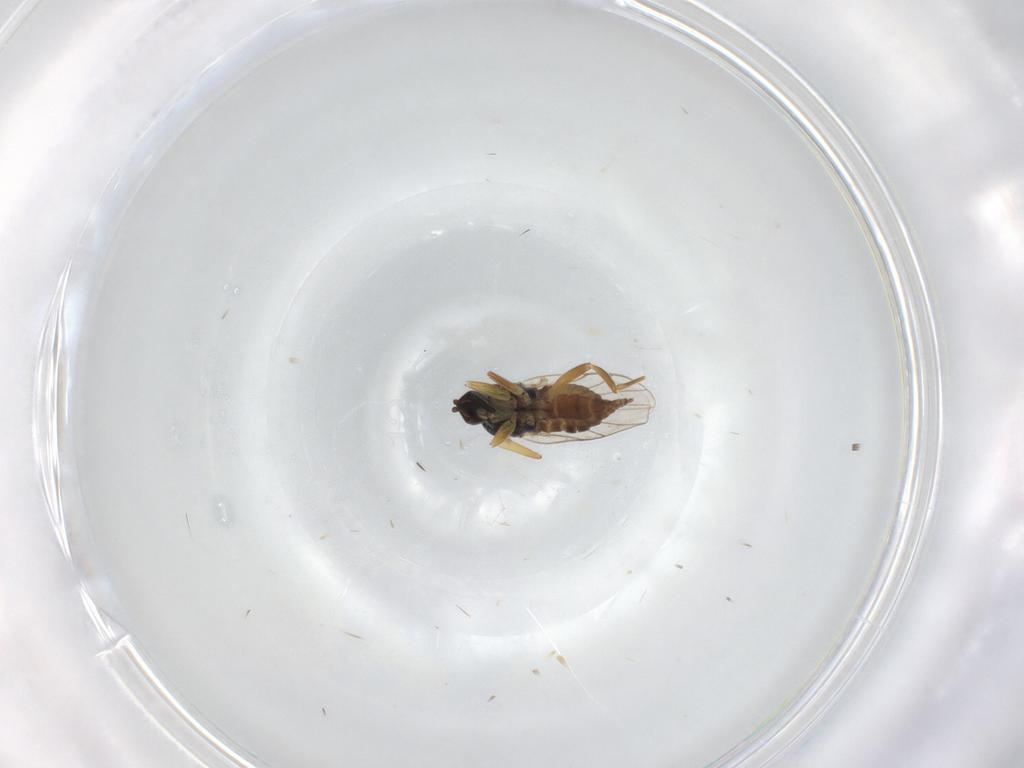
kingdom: Animalia
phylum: Arthropoda
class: Insecta
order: Diptera
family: Hybotidae
